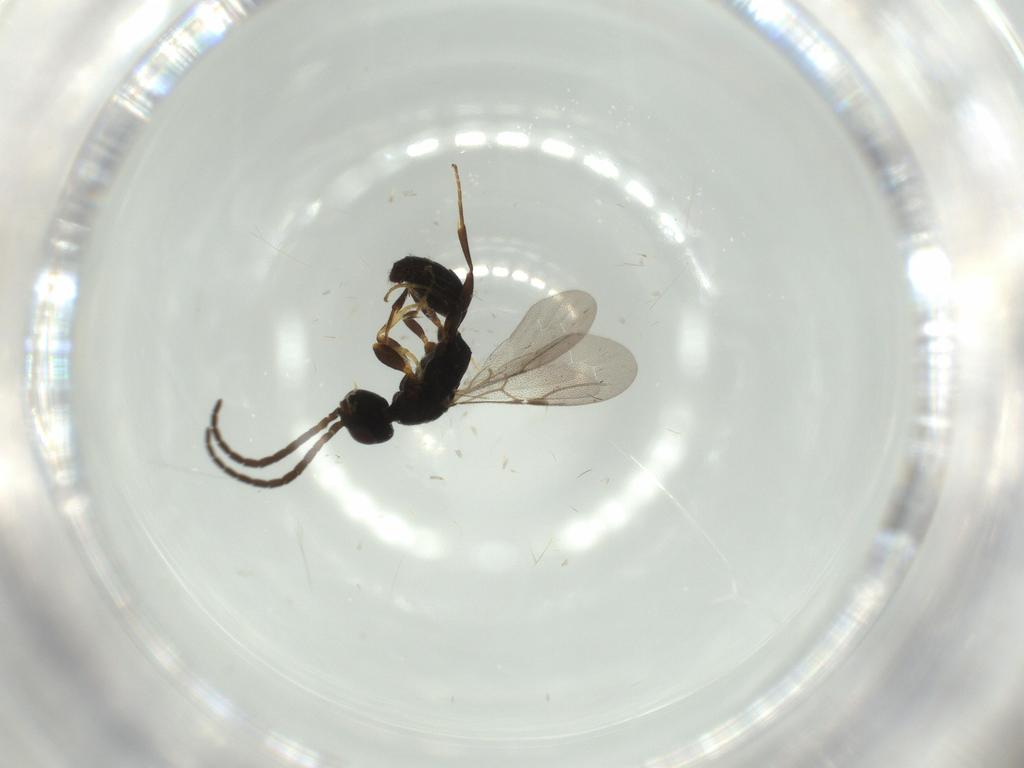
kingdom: Animalia
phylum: Arthropoda
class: Insecta
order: Hymenoptera
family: Bethylidae
